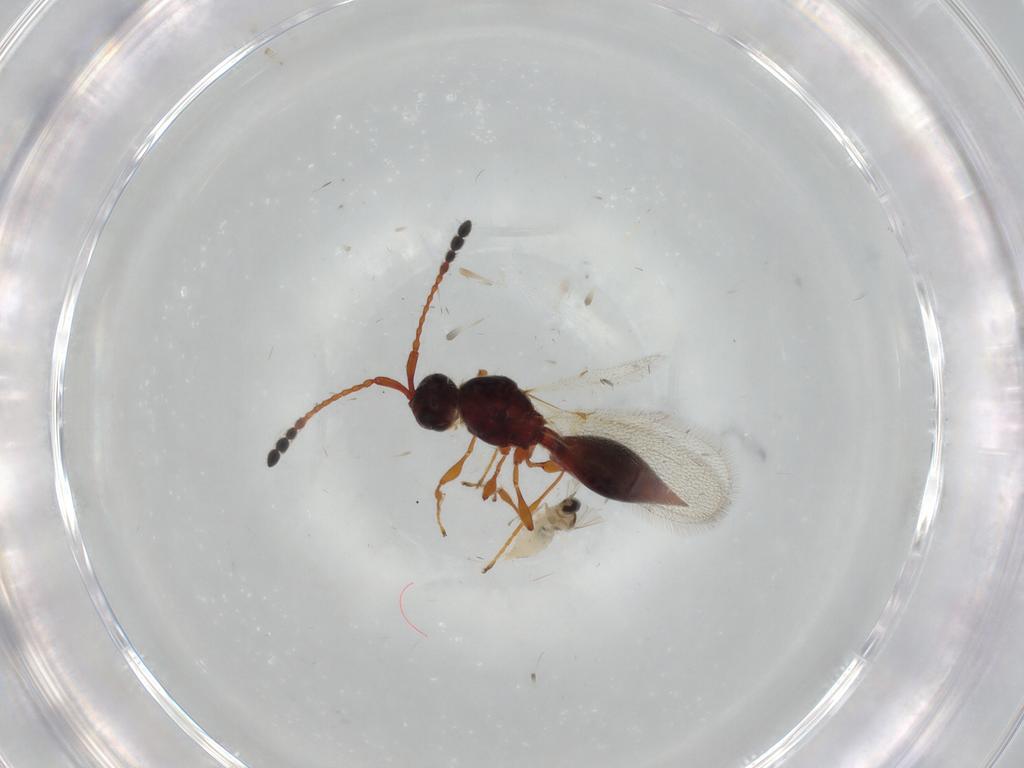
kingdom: Animalia
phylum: Arthropoda
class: Insecta
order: Diptera
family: Cecidomyiidae
